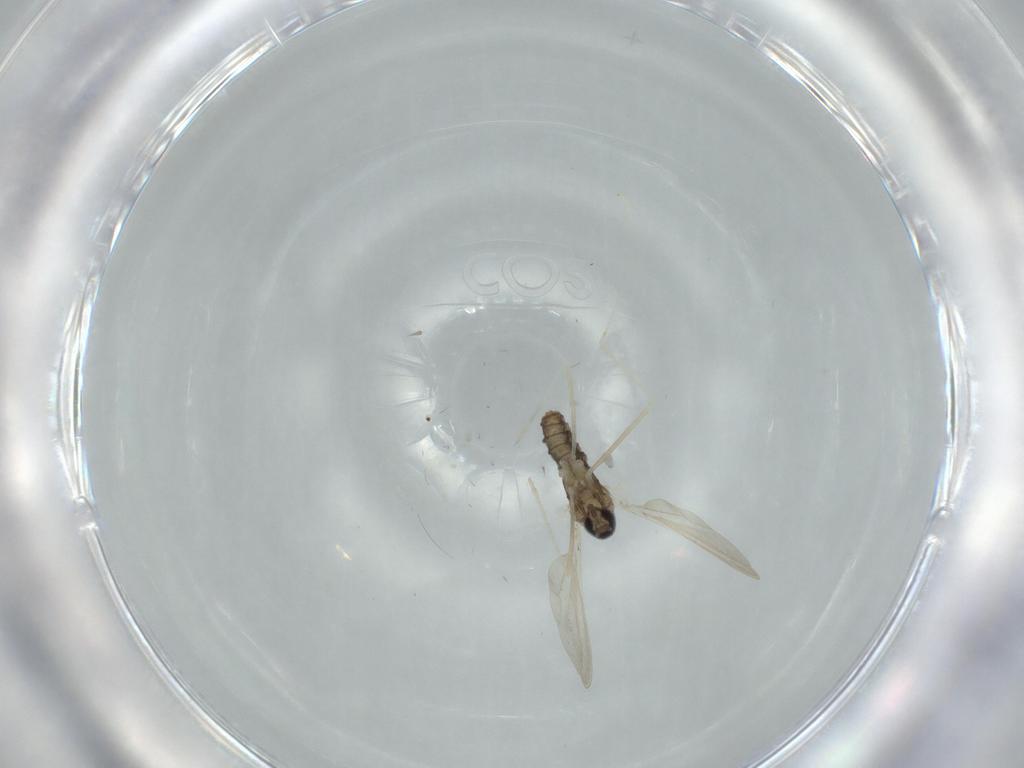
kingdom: Animalia
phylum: Arthropoda
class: Insecta
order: Diptera
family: Cecidomyiidae
